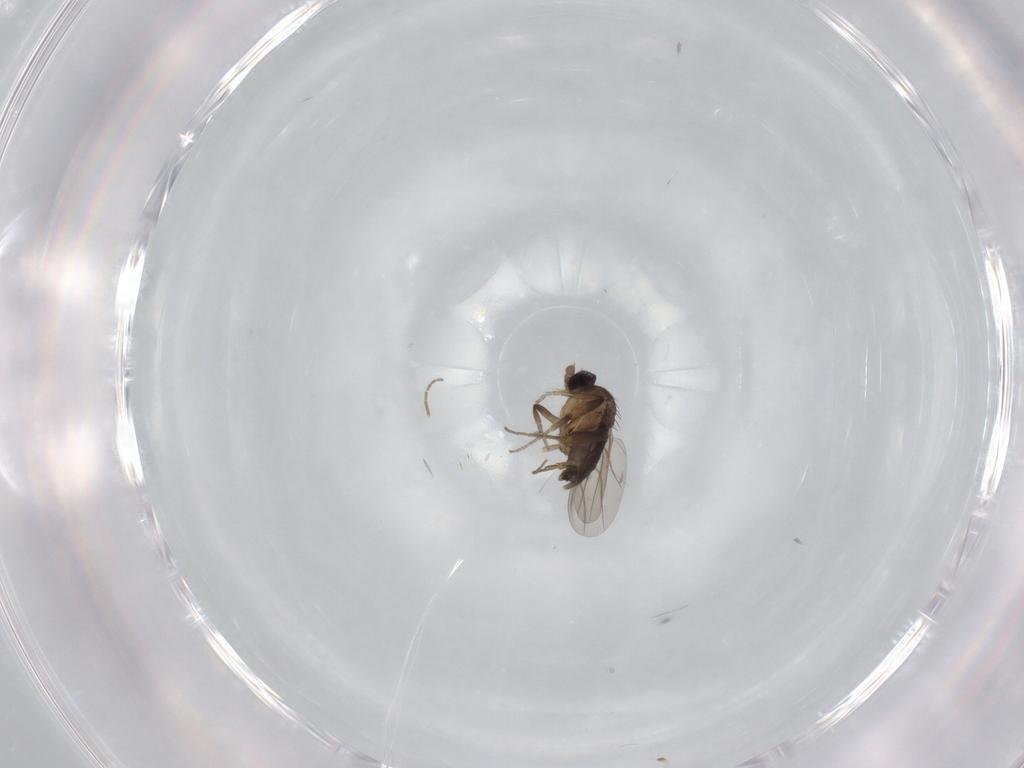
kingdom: Animalia
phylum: Arthropoda
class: Insecta
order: Diptera
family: Phoridae
